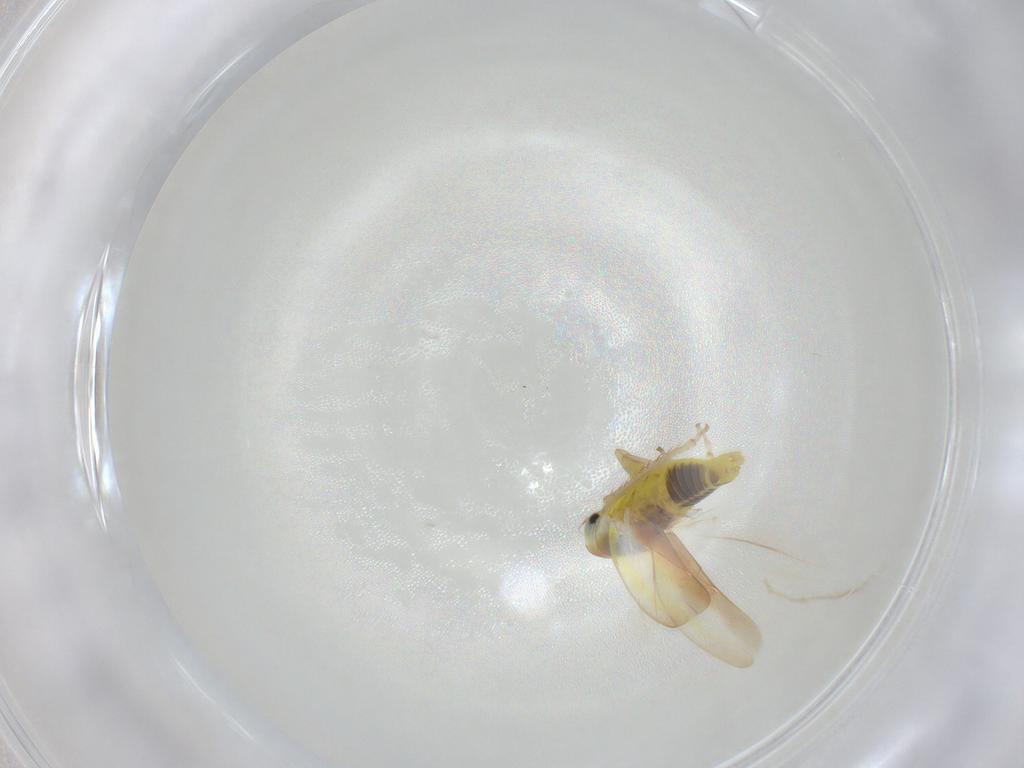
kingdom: Animalia
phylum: Arthropoda
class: Insecta
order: Hemiptera
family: Cicadellidae
